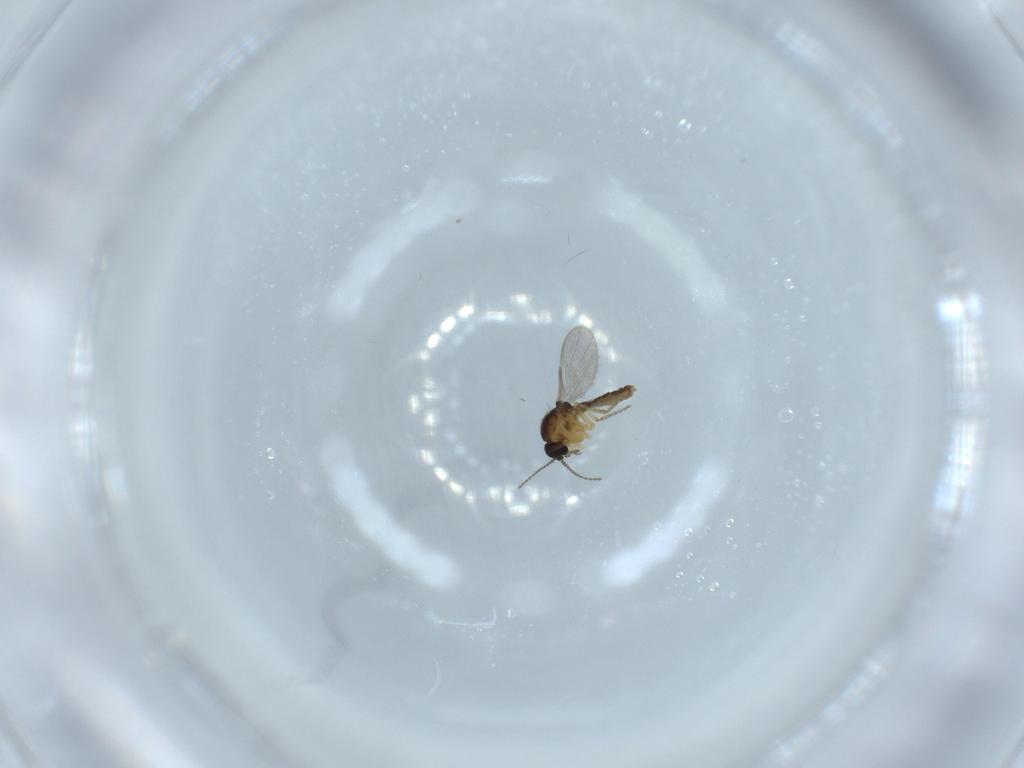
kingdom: Animalia
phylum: Arthropoda
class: Insecta
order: Diptera
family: Ceratopogonidae
